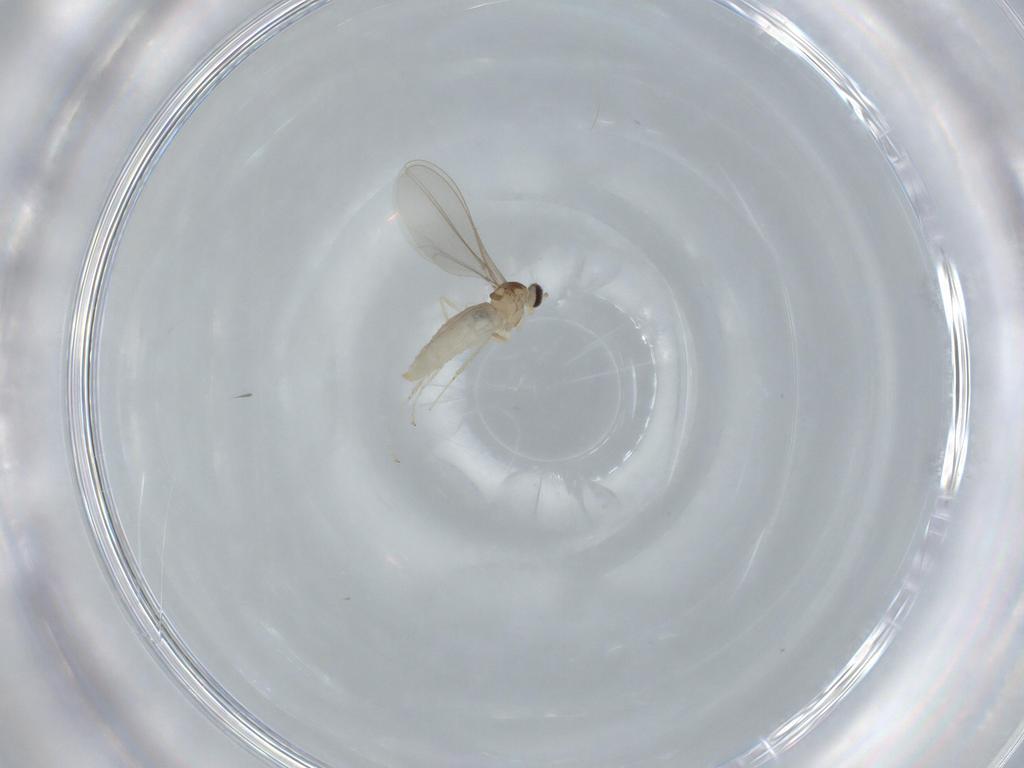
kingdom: Animalia
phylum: Arthropoda
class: Insecta
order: Diptera
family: Cecidomyiidae
